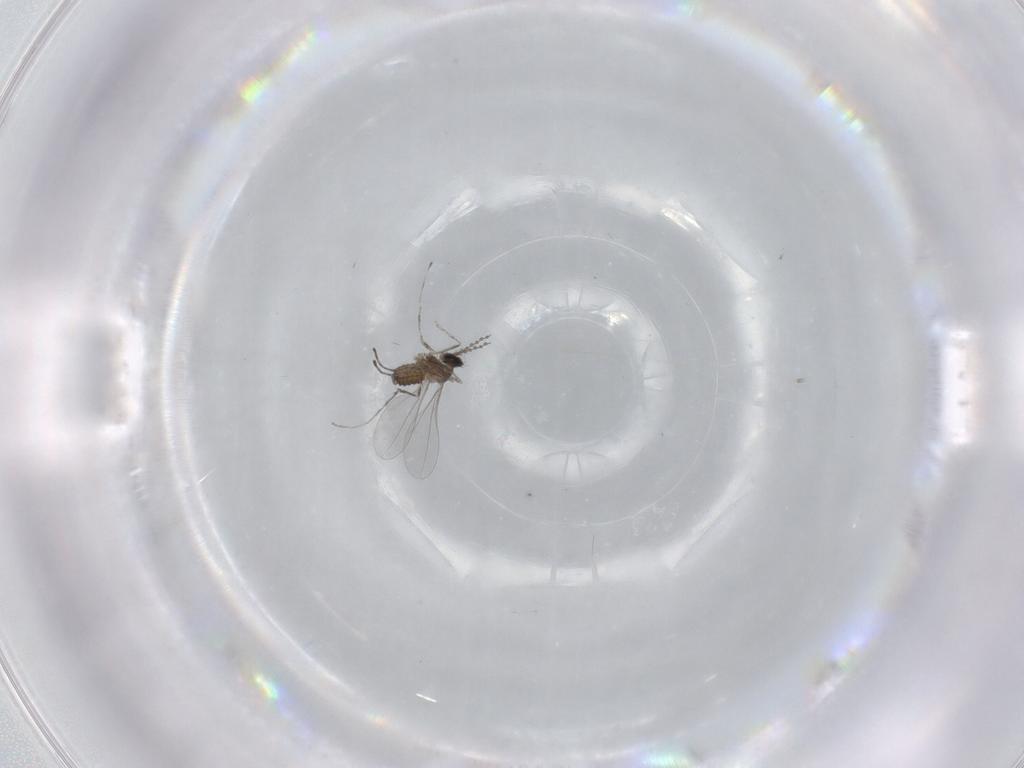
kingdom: Animalia
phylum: Arthropoda
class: Insecta
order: Diptera
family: Cecidomyiidae
